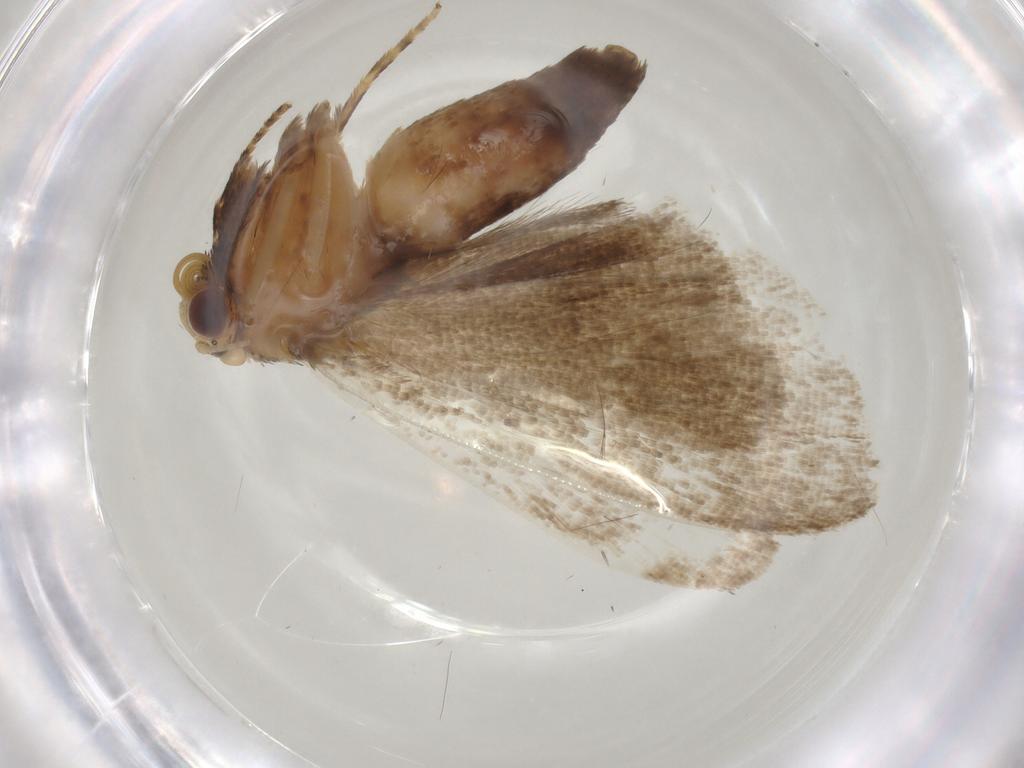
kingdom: Animalia
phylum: Arthropoda
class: Insecta
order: Lepidoptera
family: Erebidae
